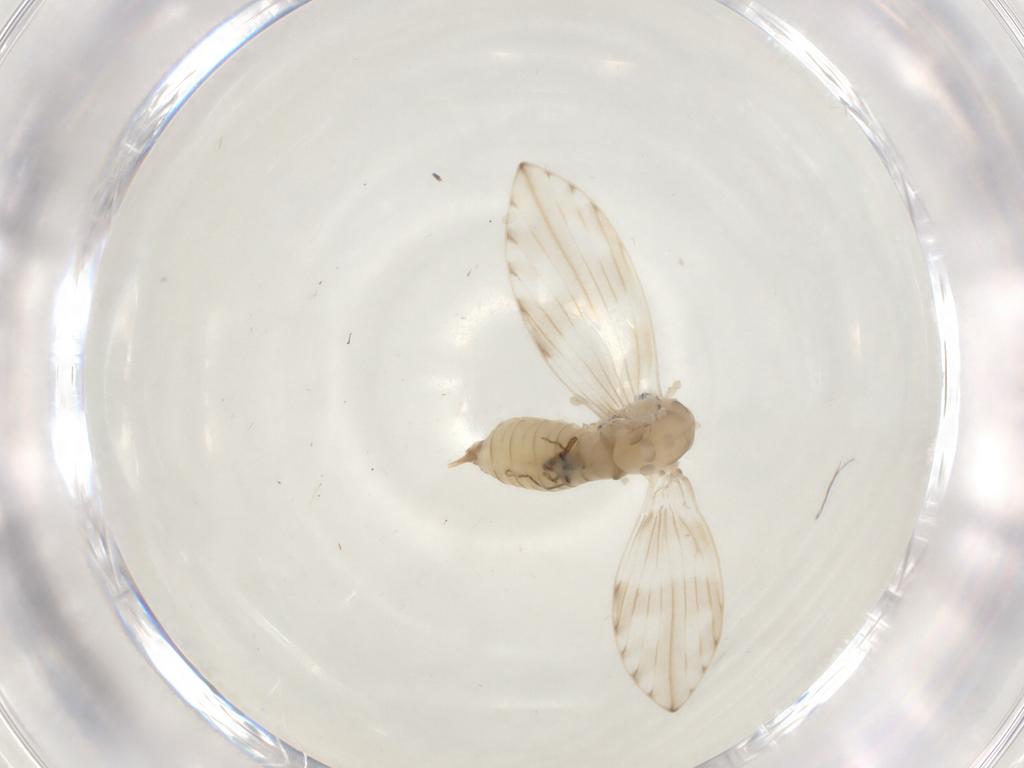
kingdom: Animalia
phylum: Arthropoda
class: Insecta
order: Diptera
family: Psychodidae
